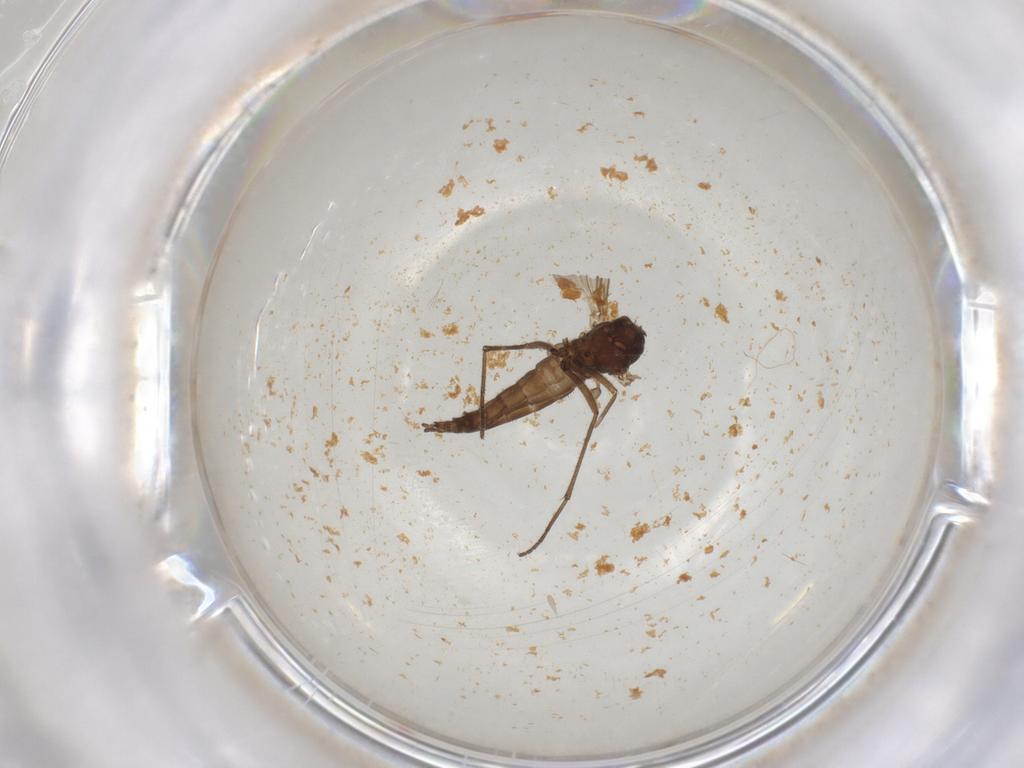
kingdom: Animalia
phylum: Arthropoda
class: Insecta
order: Diptera
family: Sciaridae
